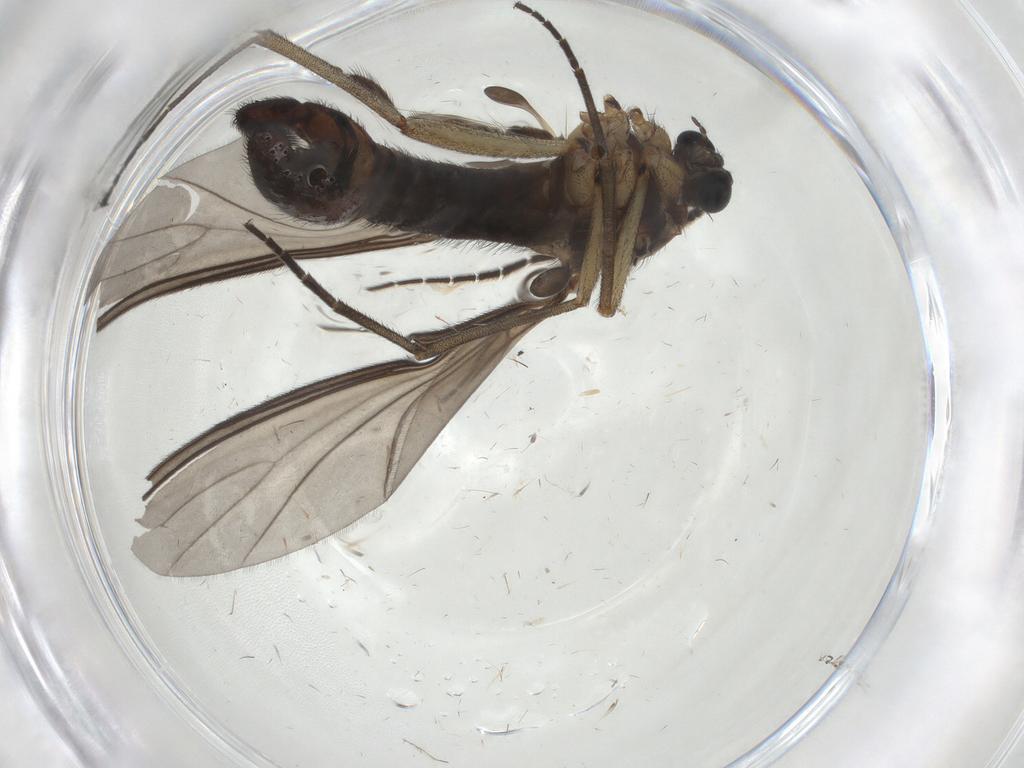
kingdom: Animalia
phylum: Arthropoda
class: Insecta
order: Diptera
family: Sciaridae
